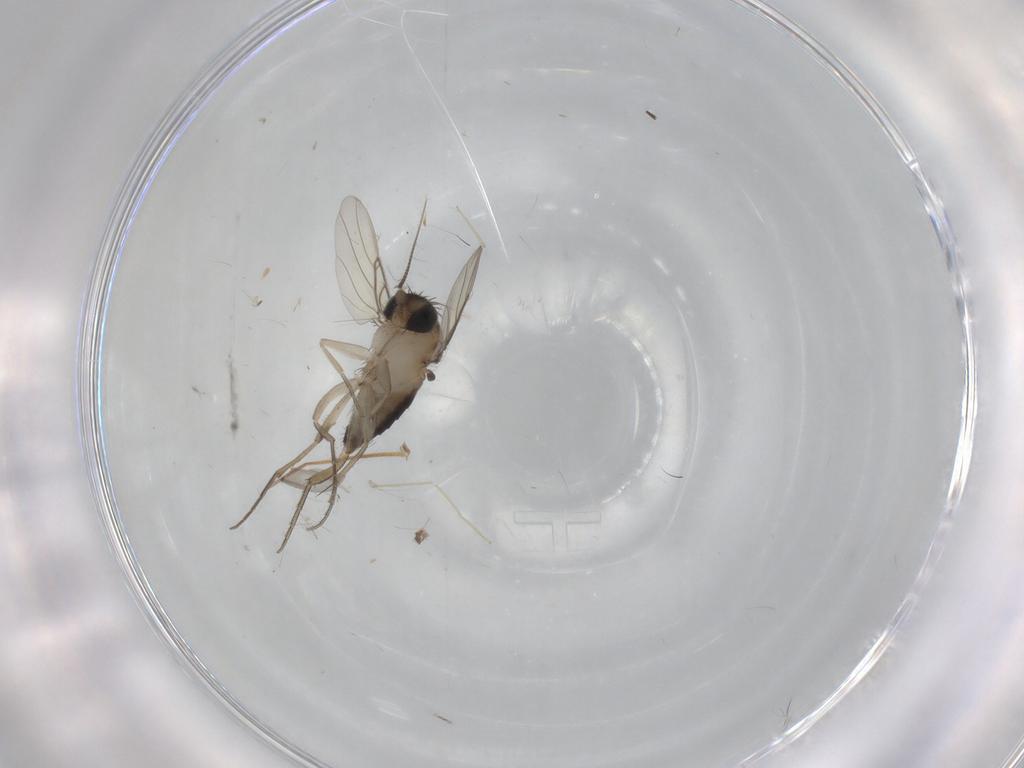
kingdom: Animalia
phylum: Arthropoda
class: Insecta
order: Diptera
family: Phoridae
